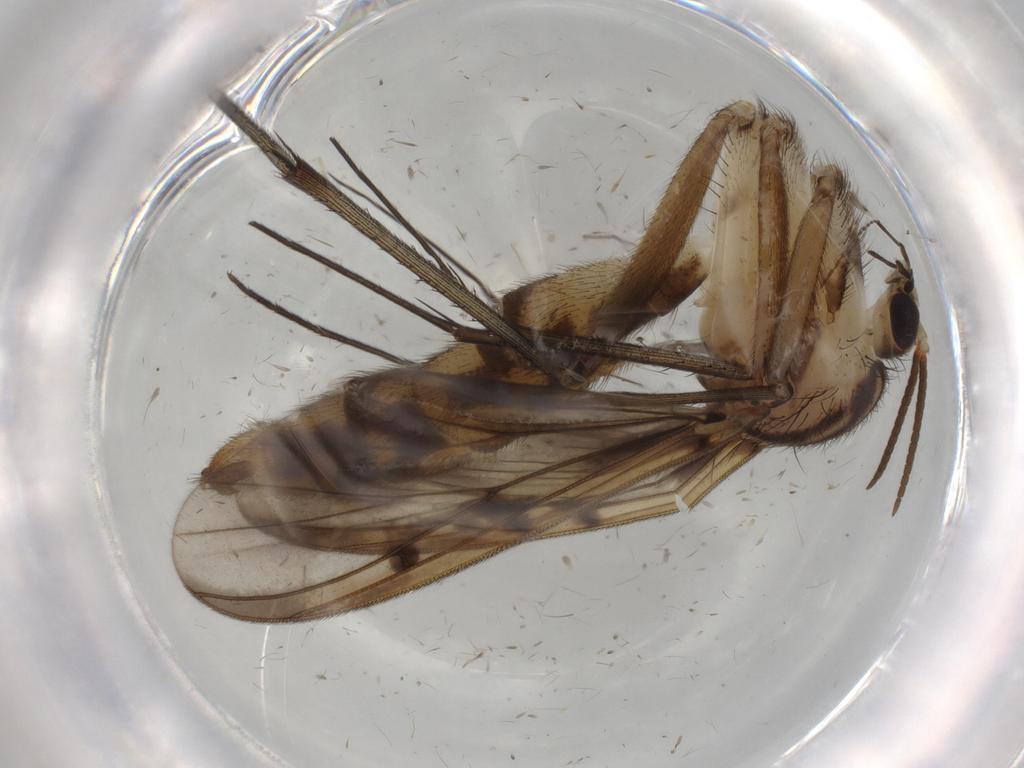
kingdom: Animalia
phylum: Arthropoda
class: Insecta
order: Diptera
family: Mycetophilidae
